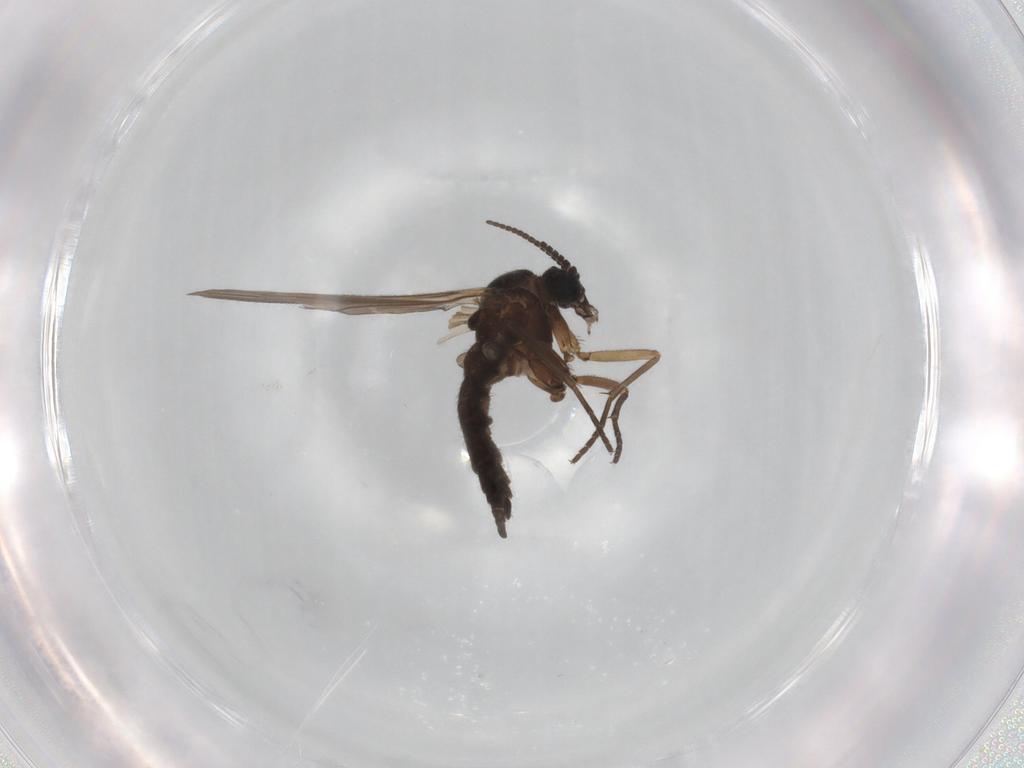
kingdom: Animalia
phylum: Arthropoda
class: Insecta
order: Diptera
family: Sciaridae
